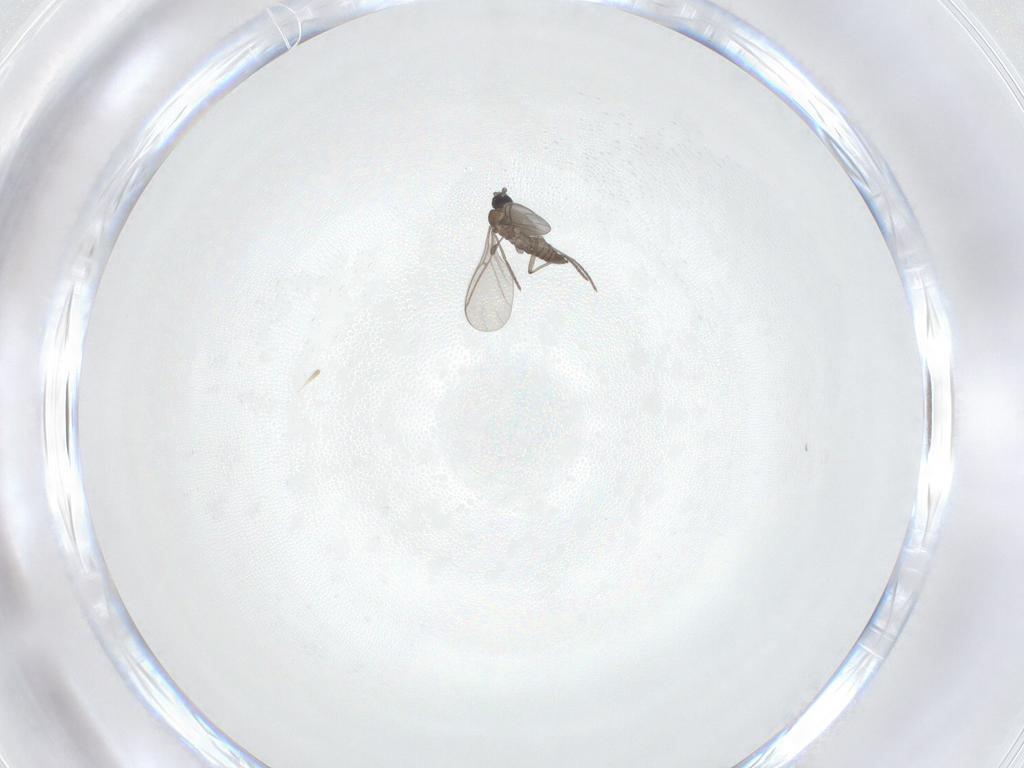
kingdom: Animalia
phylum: Arthropoda
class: Insecta
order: Diptera
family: Sciaridae
